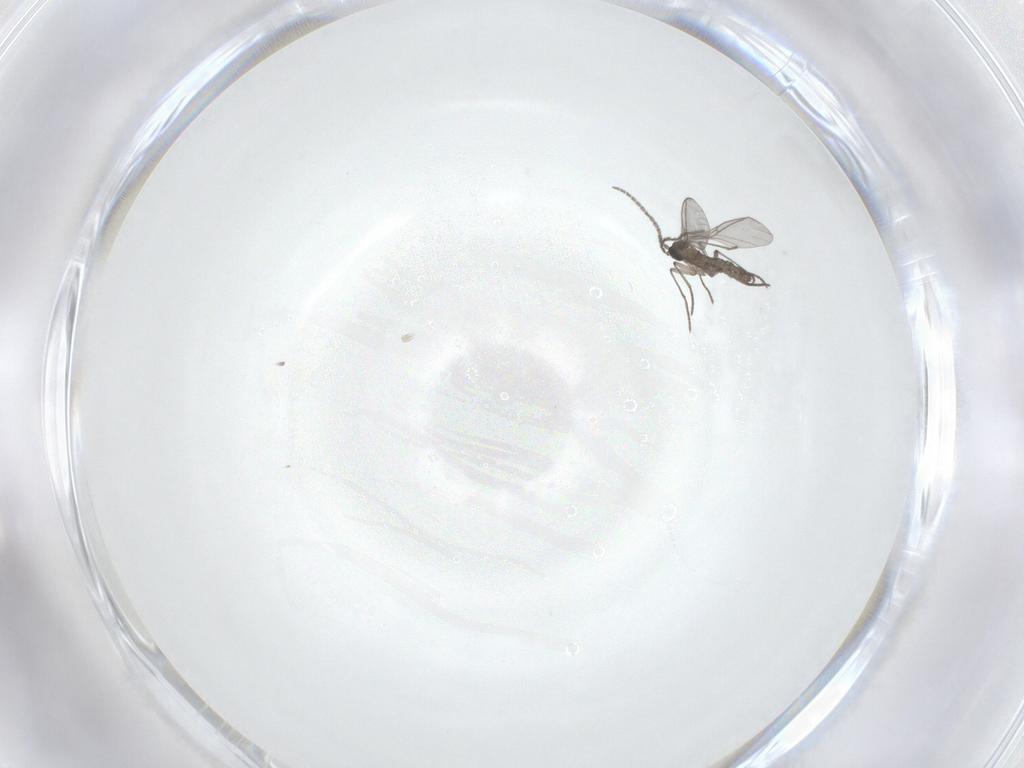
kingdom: Animalia
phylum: Arthropoda
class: Insecta
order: Diptera
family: Sciaridae
